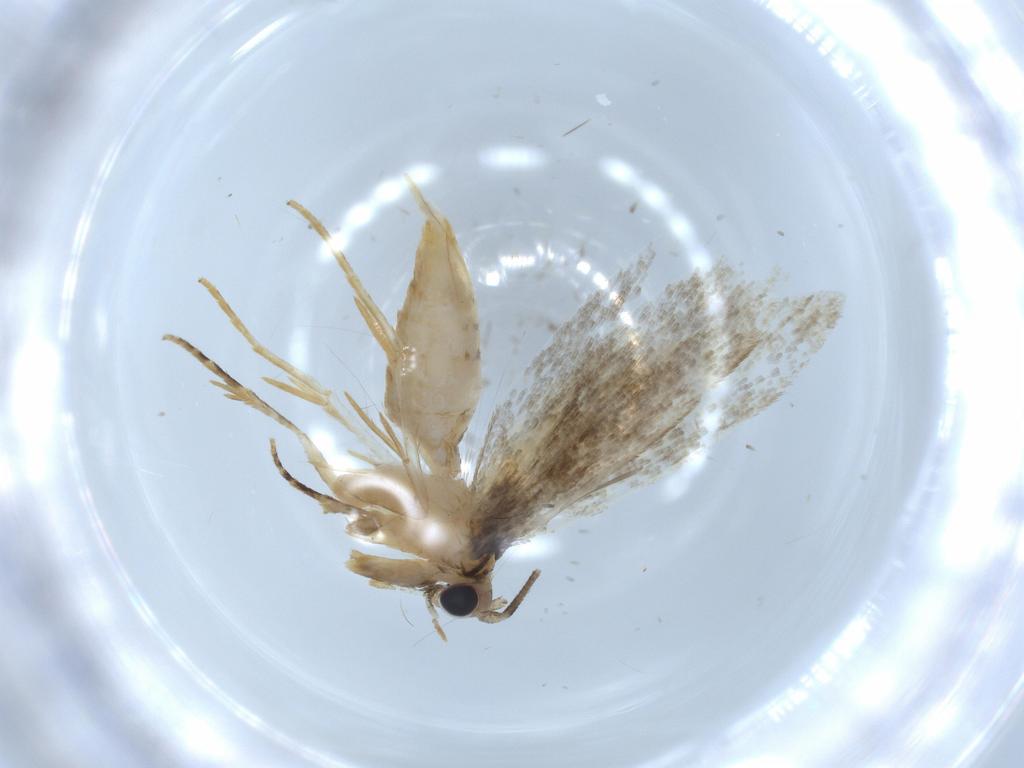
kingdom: Animalia
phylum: Arthropoda
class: Insecta
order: Lepidoptera
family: Tineidae
